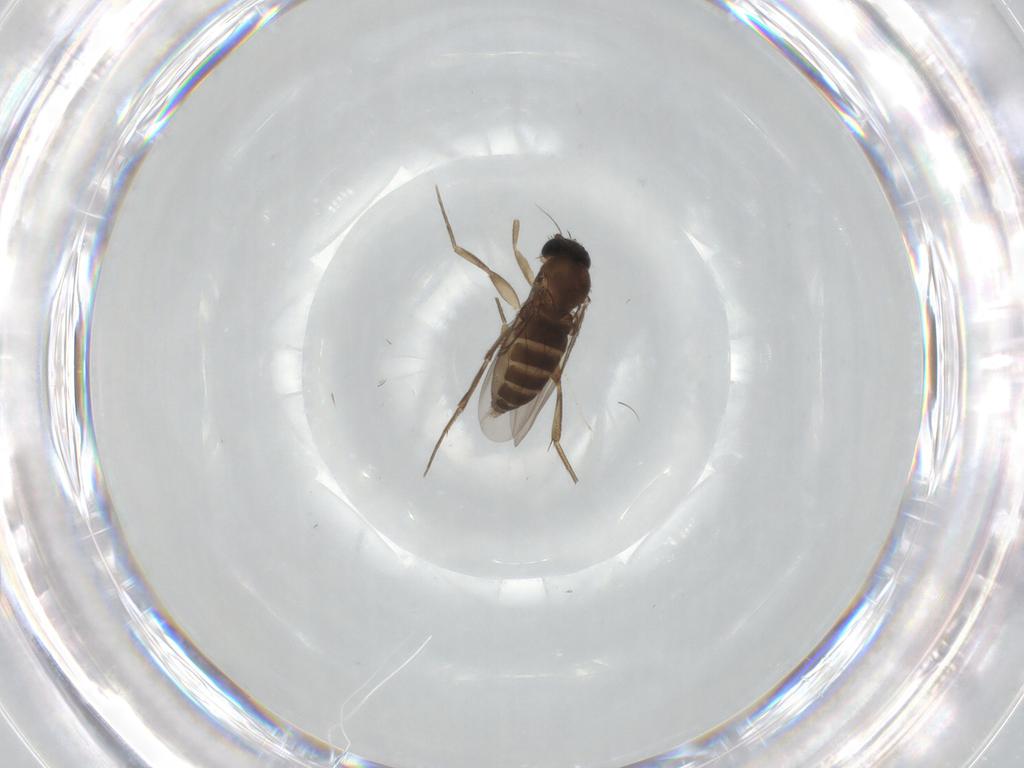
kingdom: Animalia
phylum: Arthropoda
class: Insecta
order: Diptera
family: Phoridae
